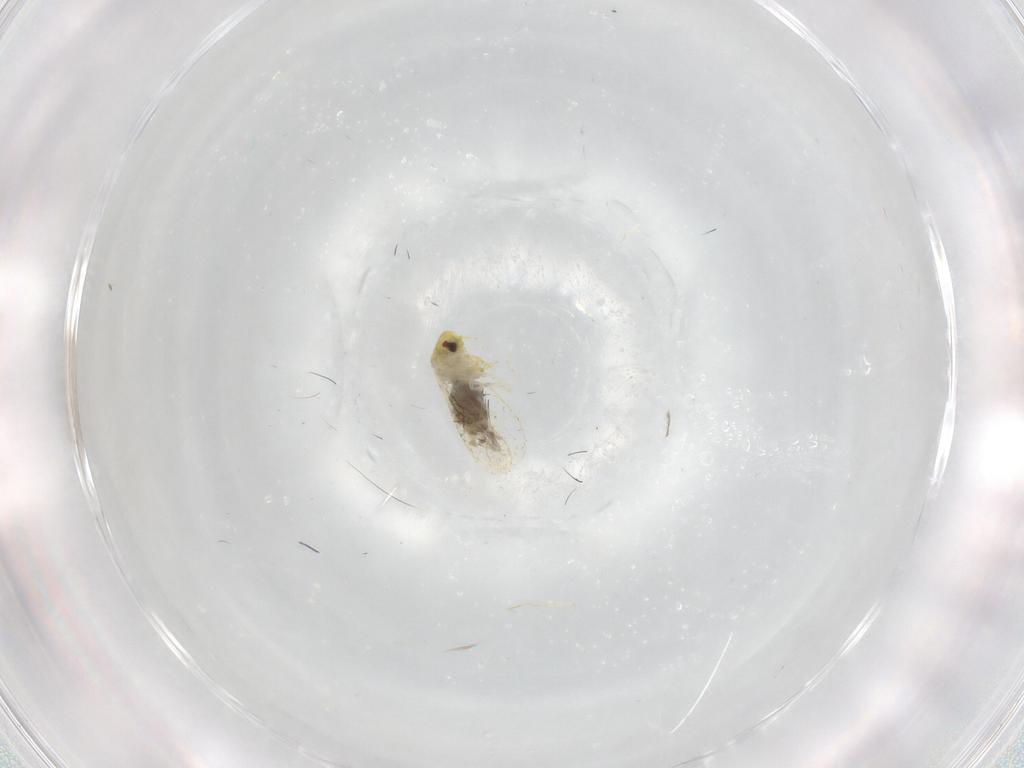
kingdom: Animalia
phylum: Arthropoda
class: Insecta
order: Hemiptera
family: Aleyrodidae
